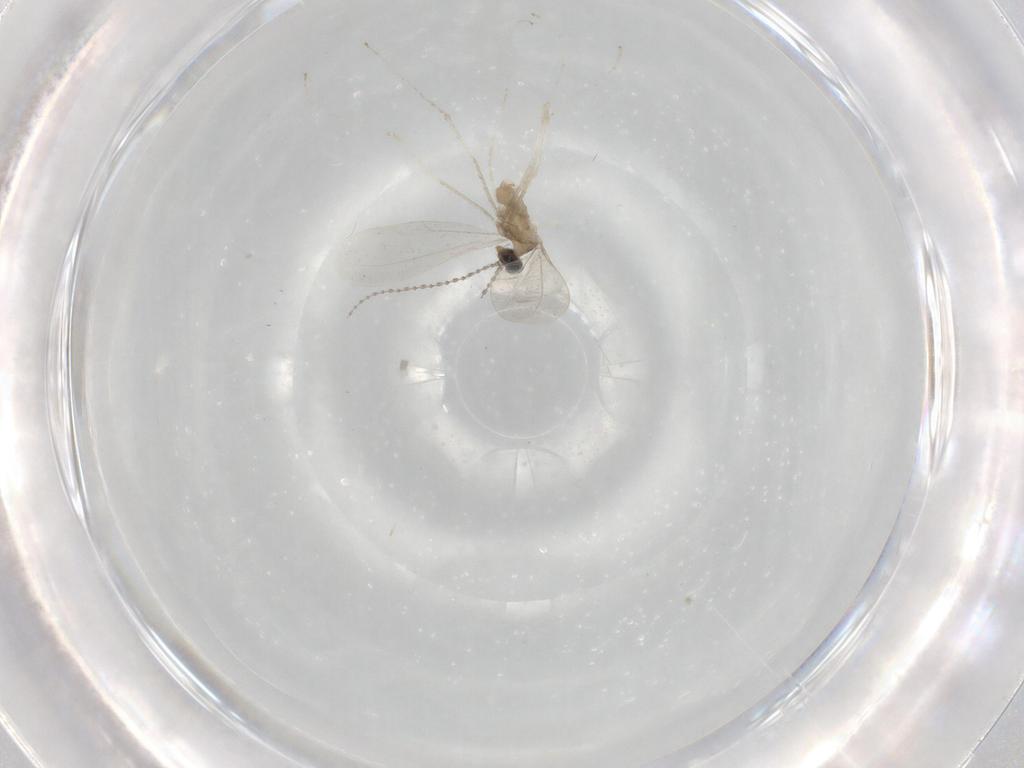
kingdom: Animalia
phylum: Arthropoda
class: Insecta
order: Diptera
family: Cecidomyiidae
